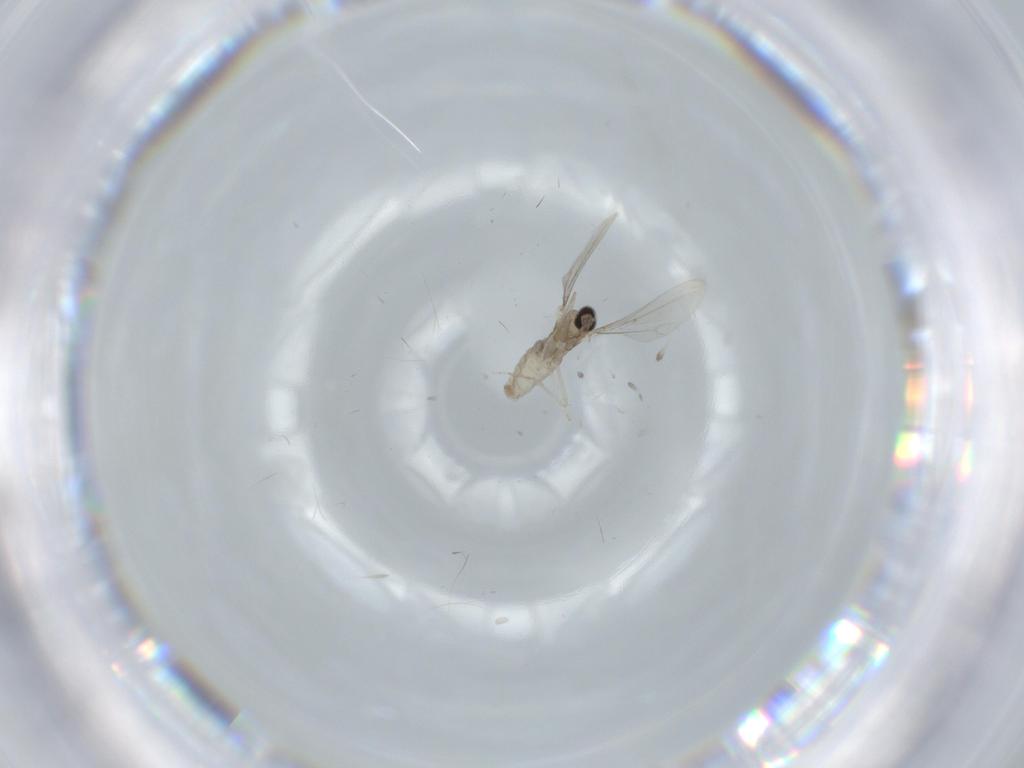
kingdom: Animalia
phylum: Arthropoda
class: Insecta
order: Diptera
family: Cecidomyiidae
